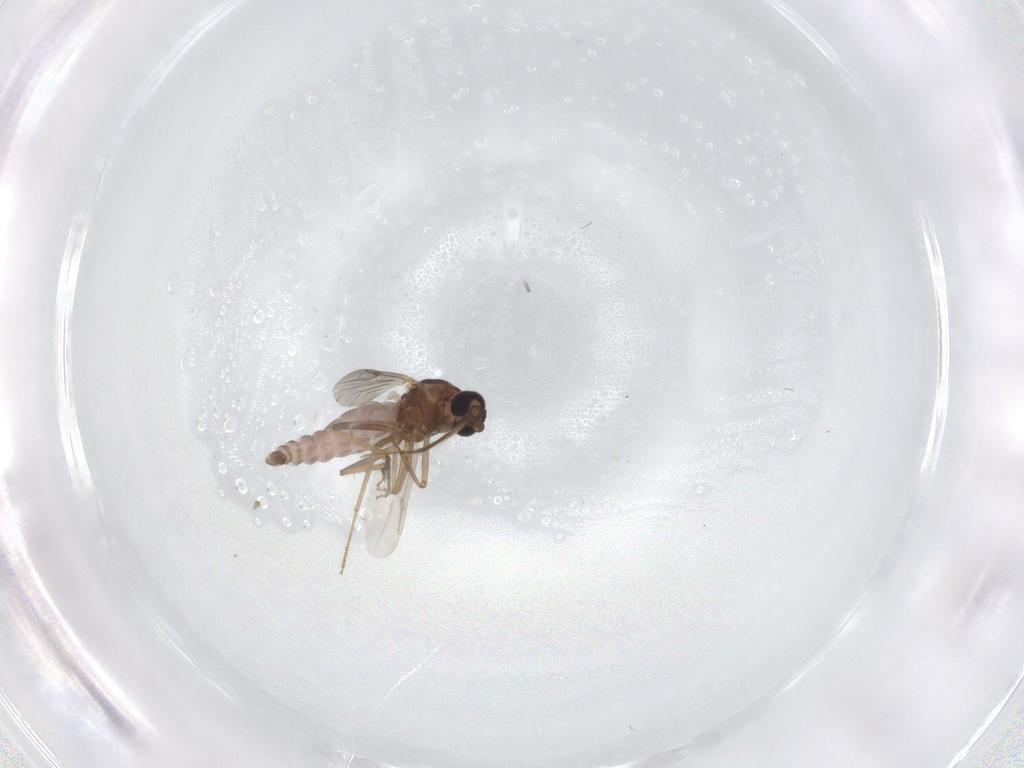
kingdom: Animalia
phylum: Arthropoda
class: Insecta
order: Diptera
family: Ceratopogonidae
